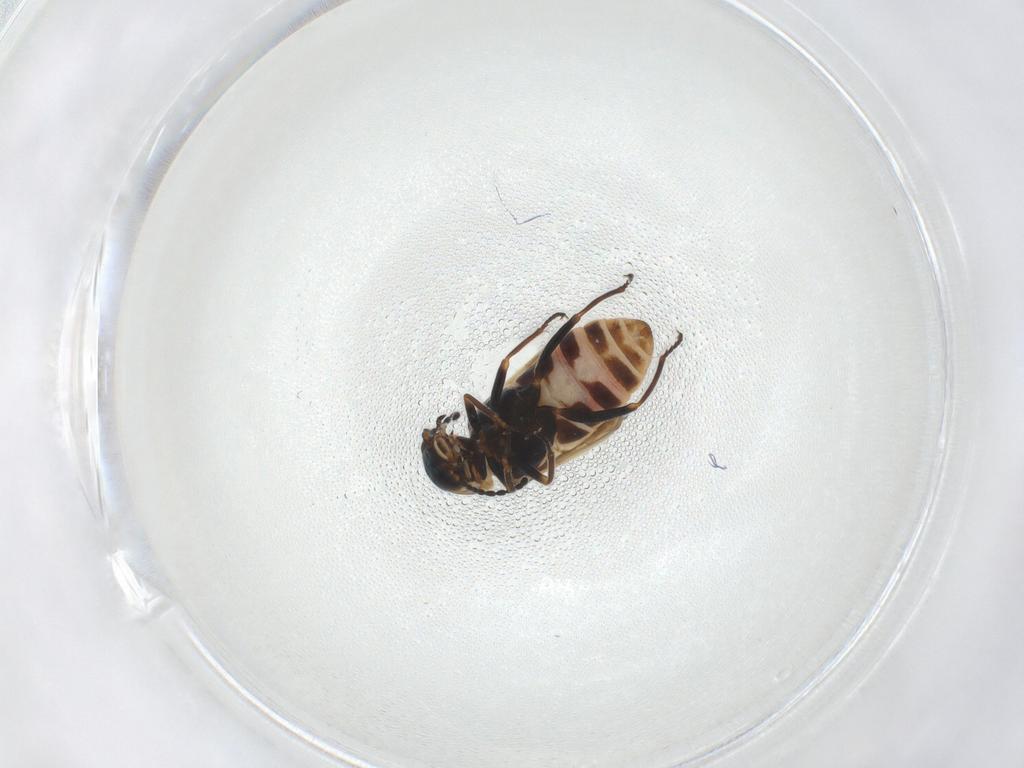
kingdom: Animalia
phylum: Arthropoda
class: Insecta
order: Coleoptera
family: Melyridae
